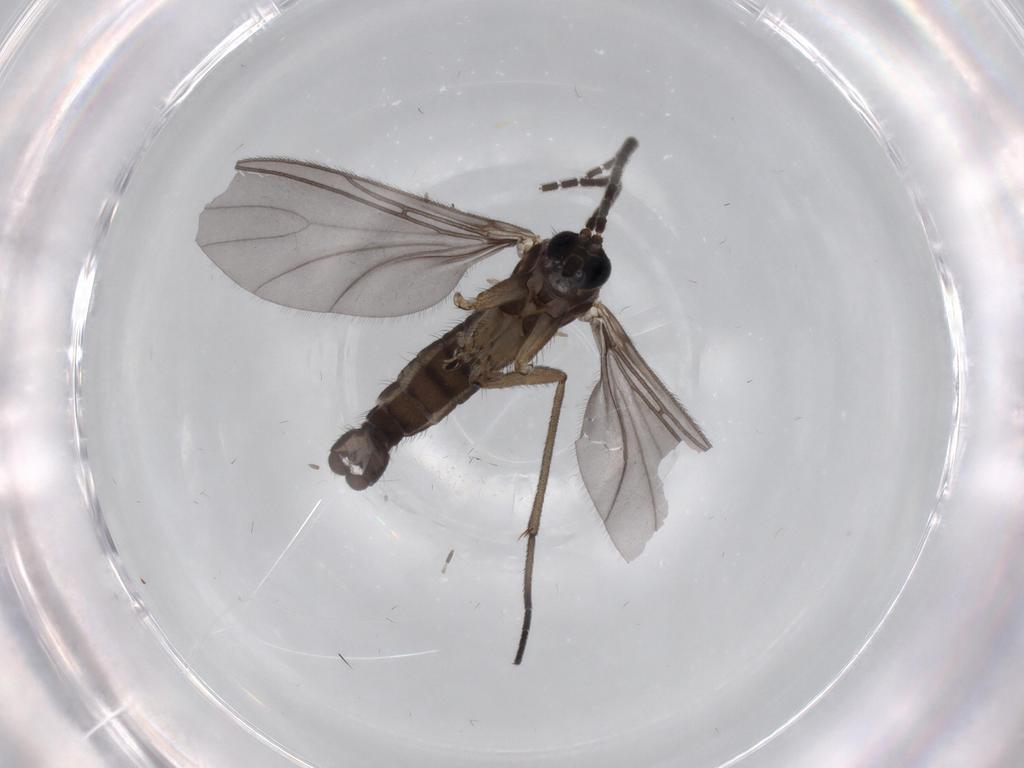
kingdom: Animalia
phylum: Arthropoda
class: Insecta
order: Diptera
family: Sciaridae
